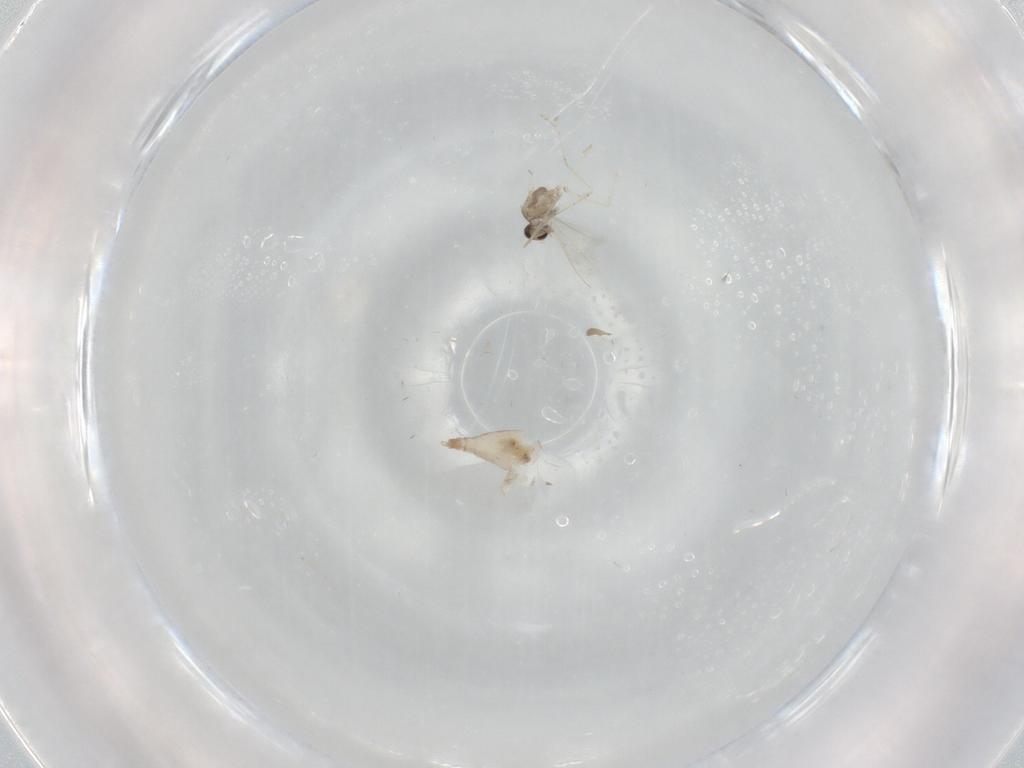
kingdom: Animalia
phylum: Arthropoda
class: Insecta
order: Diptera
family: Cecidomyiidae
